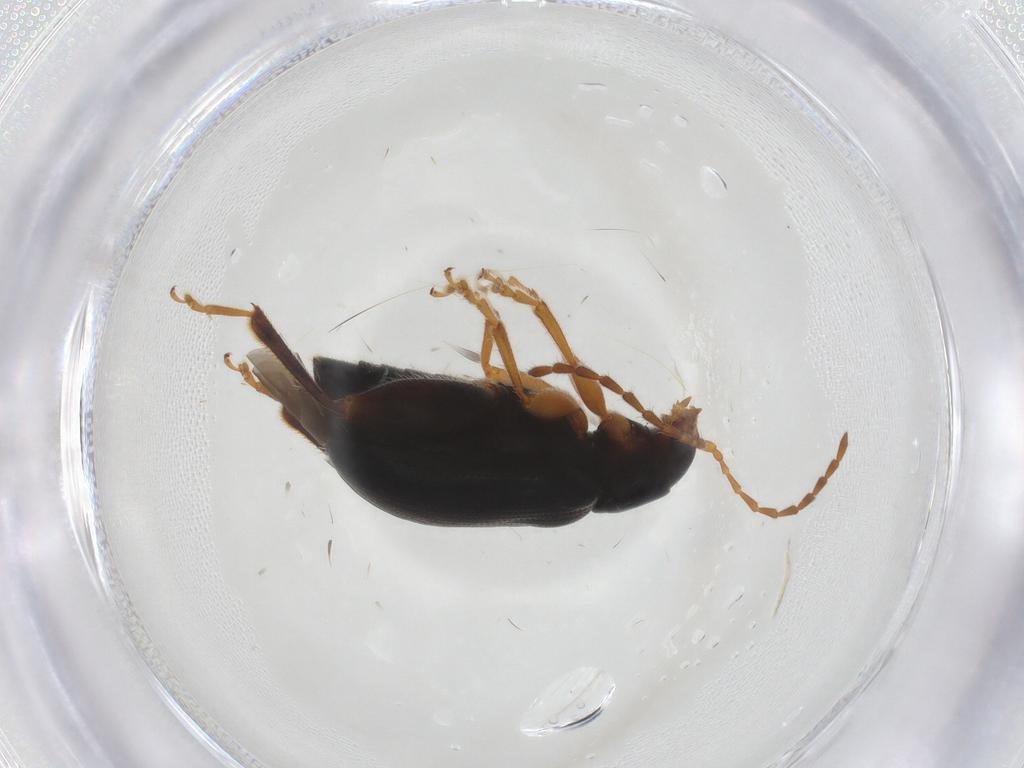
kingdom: Animalia
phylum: Arthropoda
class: Insecta
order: Coleoptera
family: Chrysomelidae
